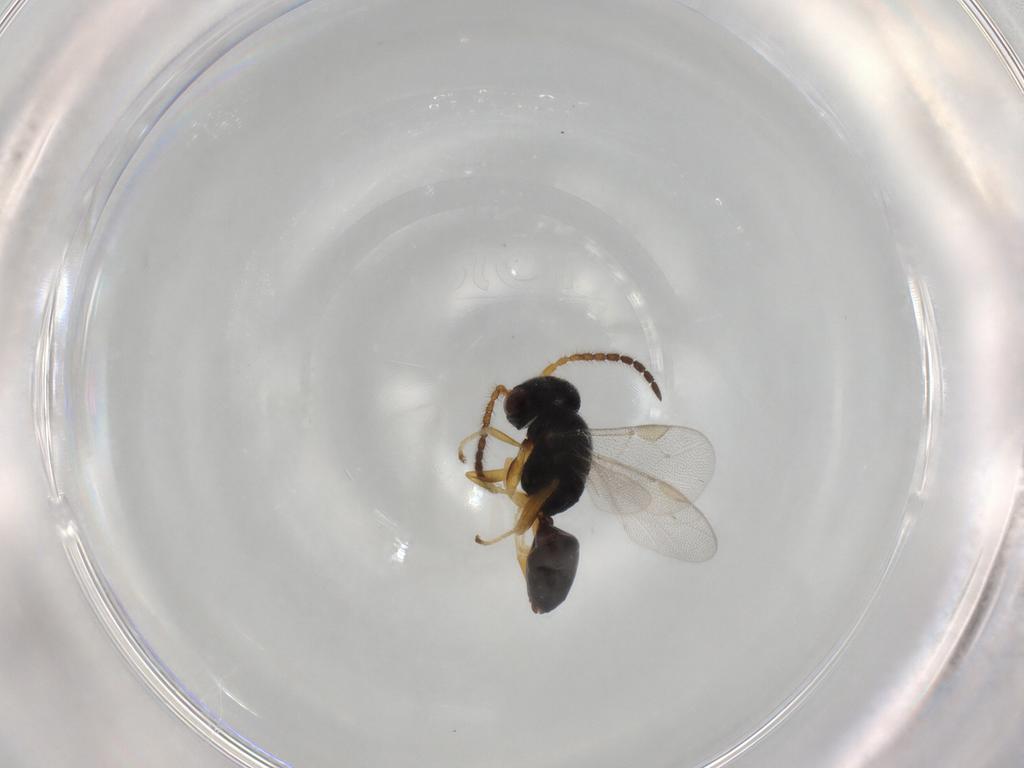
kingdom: Animalia
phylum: Arthropoda
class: Insecta
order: Hymenoptera
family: Dryinidae
